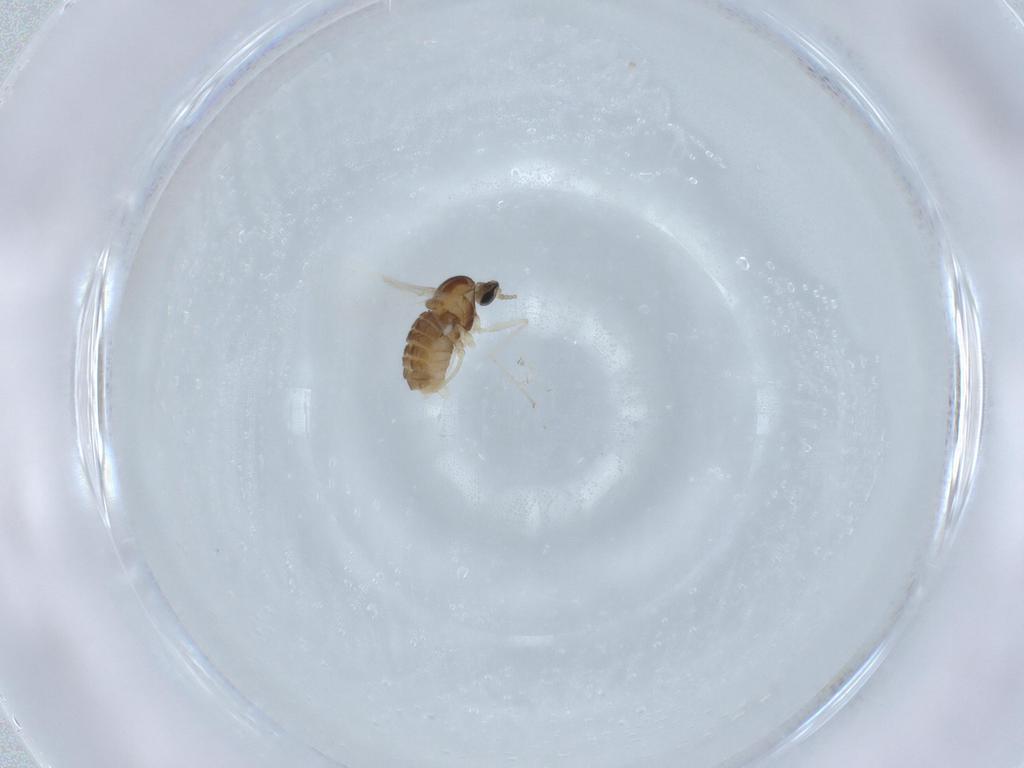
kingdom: Animalia
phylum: Arthropoda
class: Insecta
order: Diptera
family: Cecidomyiidae
